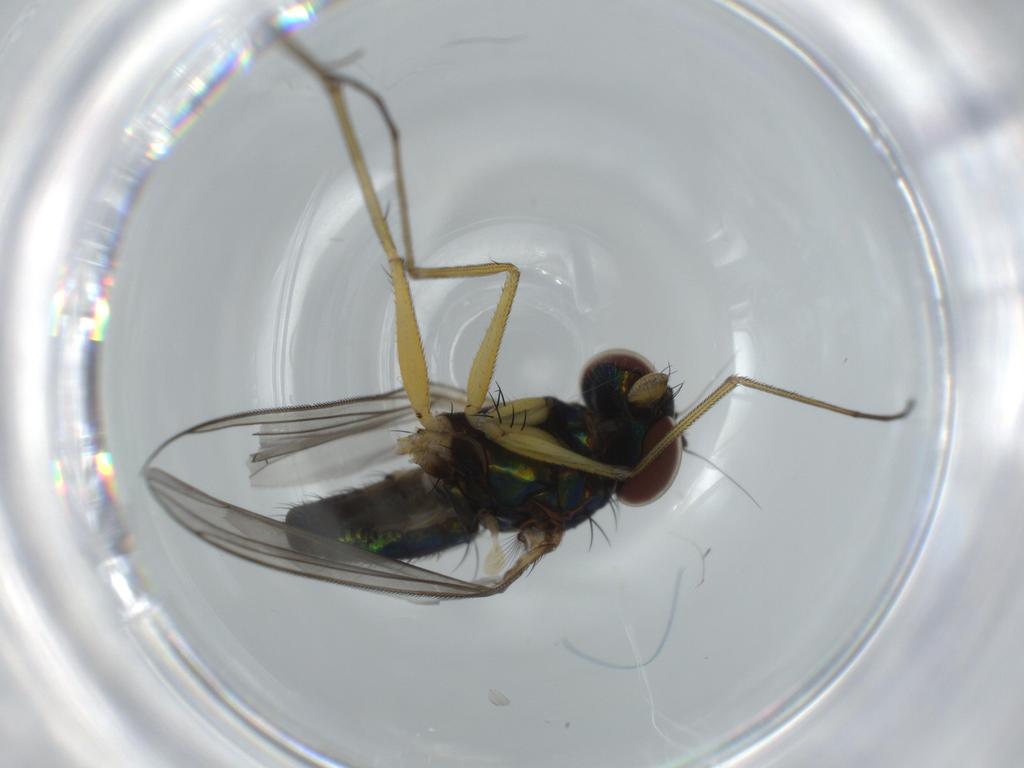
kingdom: Animalia
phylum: Arthropoda
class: Insecta
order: Diptera
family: Dolichopodidae
